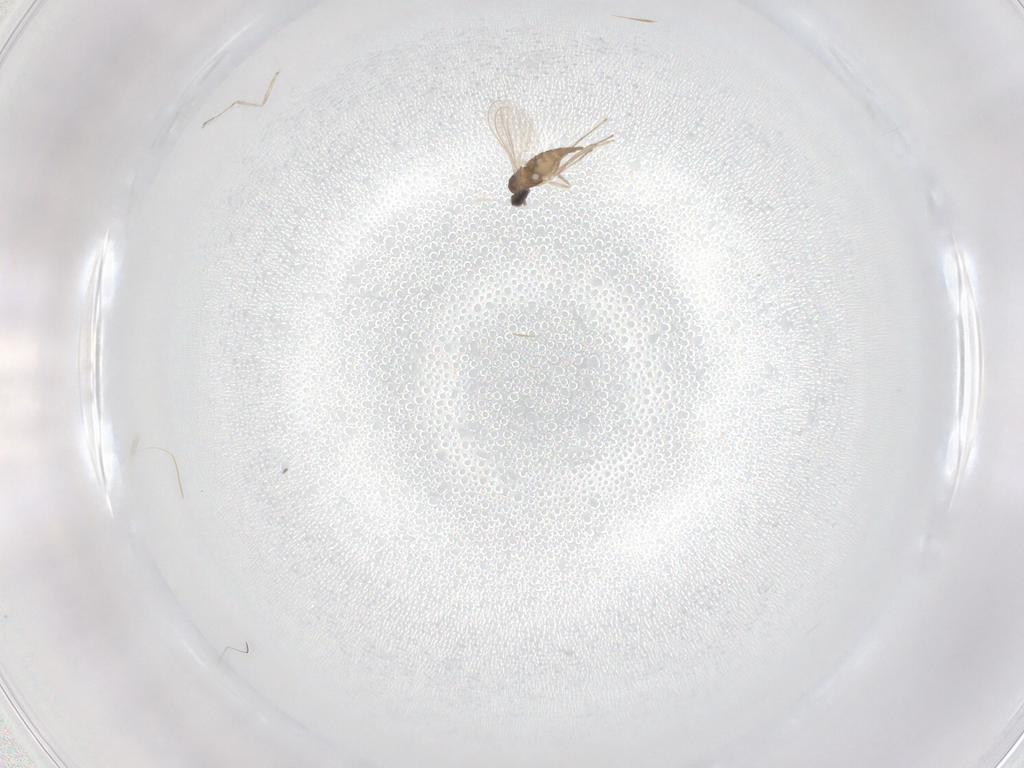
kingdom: Animalia
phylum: Arthropoda
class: Insecta
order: Diptera
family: Cecidomyiidae
